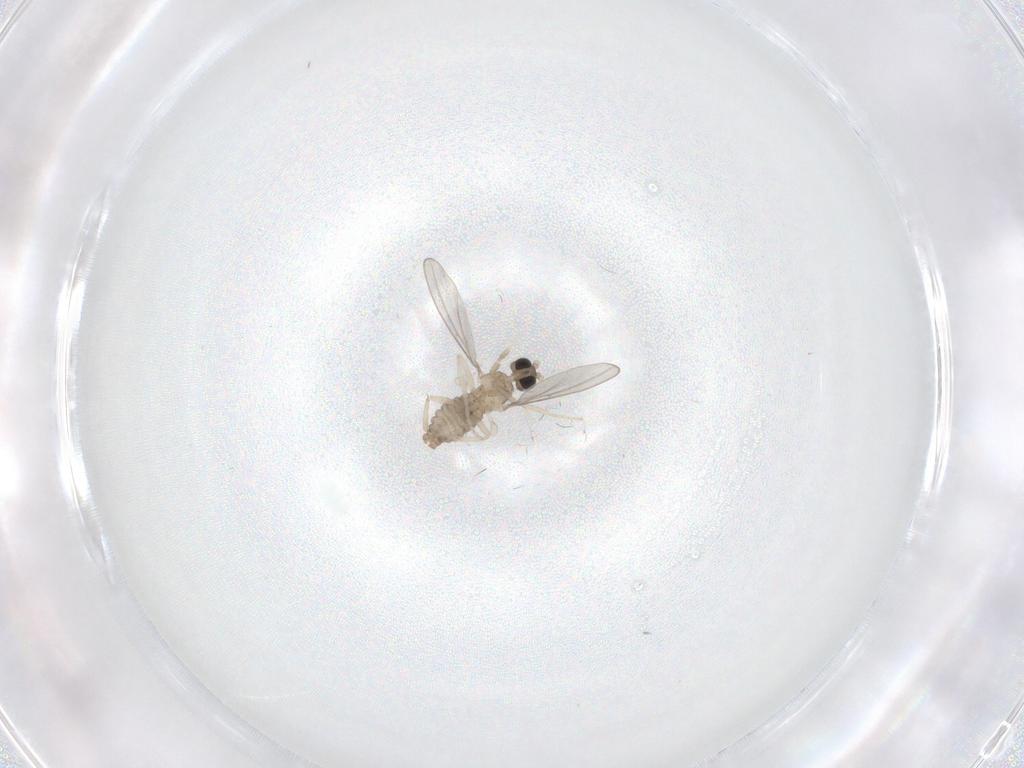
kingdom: Animalia
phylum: Arthropoda
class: Insecta
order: Diptera
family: Cecidomyiidae
